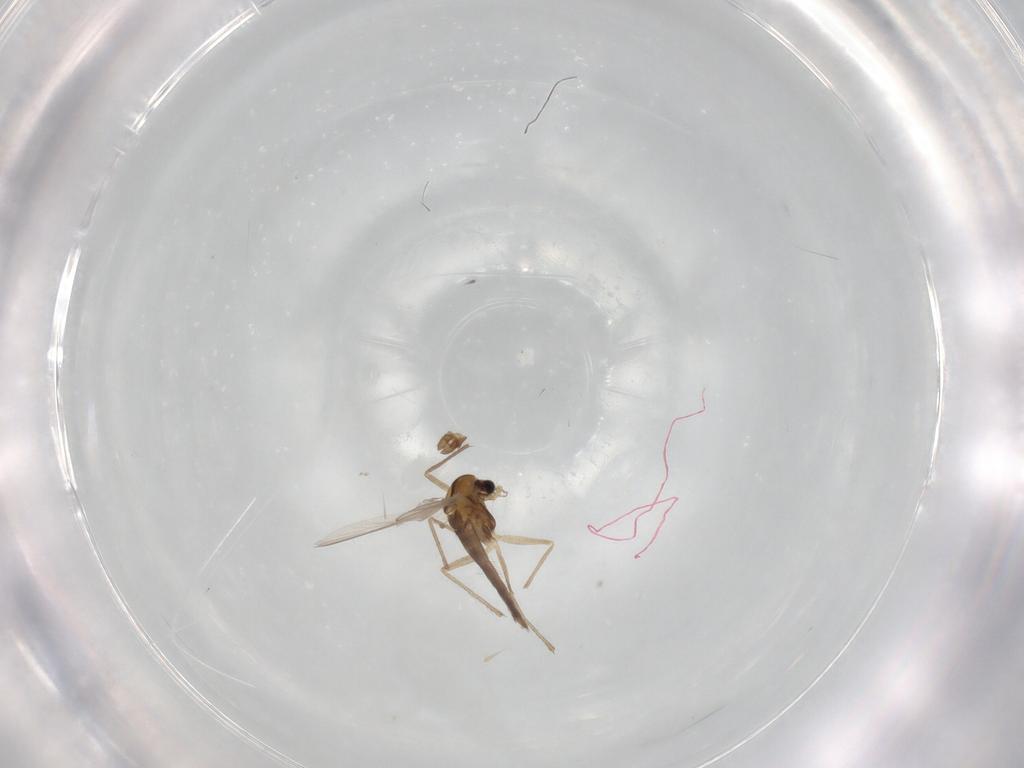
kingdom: Animalia
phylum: Arthropoda
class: Insecta
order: Diptera
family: Chironomidae
